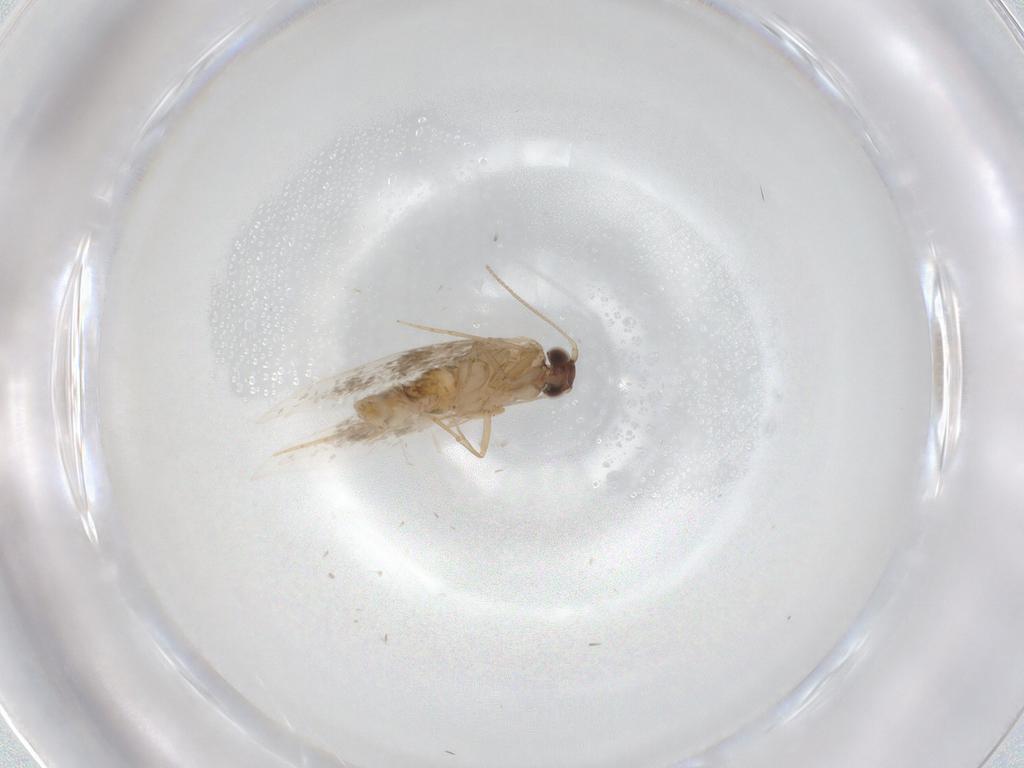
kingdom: Animalia
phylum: Arthropoda
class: Insecta
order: Lepidoptera
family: Tineidae
